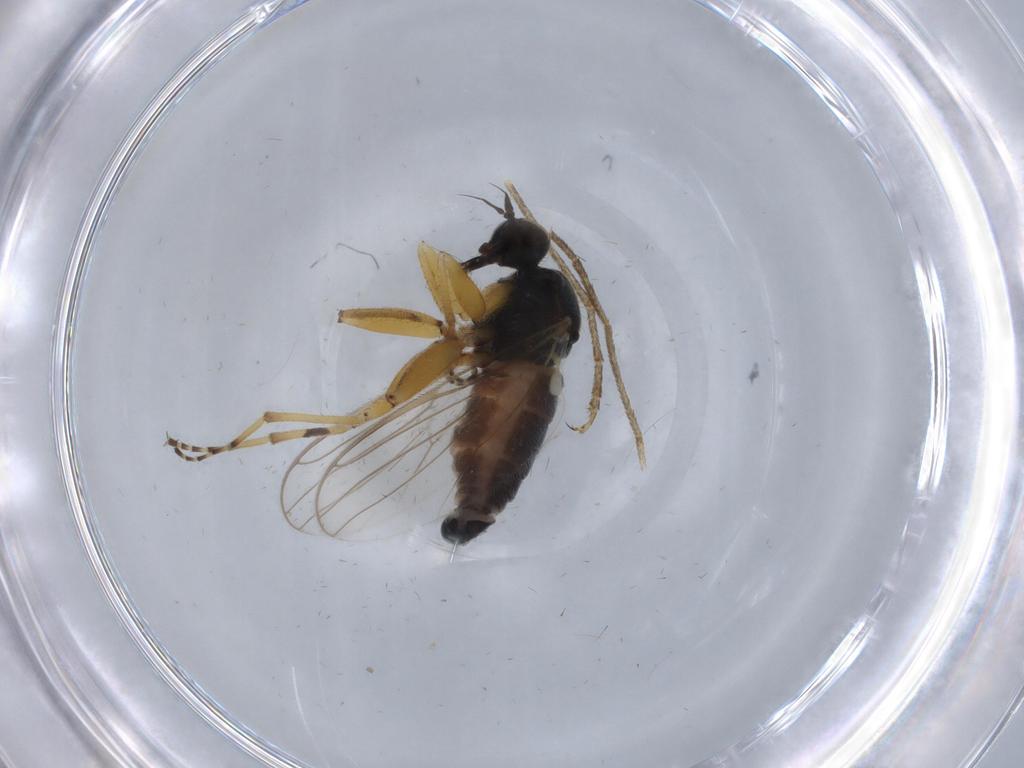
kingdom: Animalia
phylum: Arthropoda
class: Insecta
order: Diptera
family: Hybotidae
